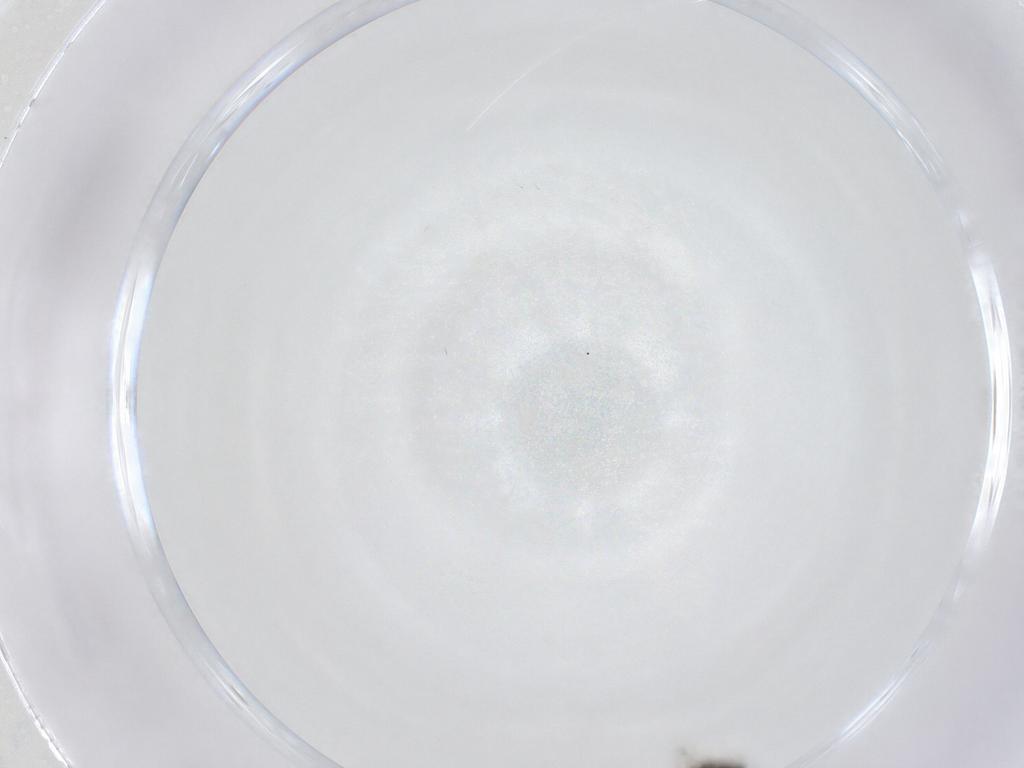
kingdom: Animalia
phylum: Arthropoda
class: Insecta
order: Hymenoptera
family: Encyrtidae
